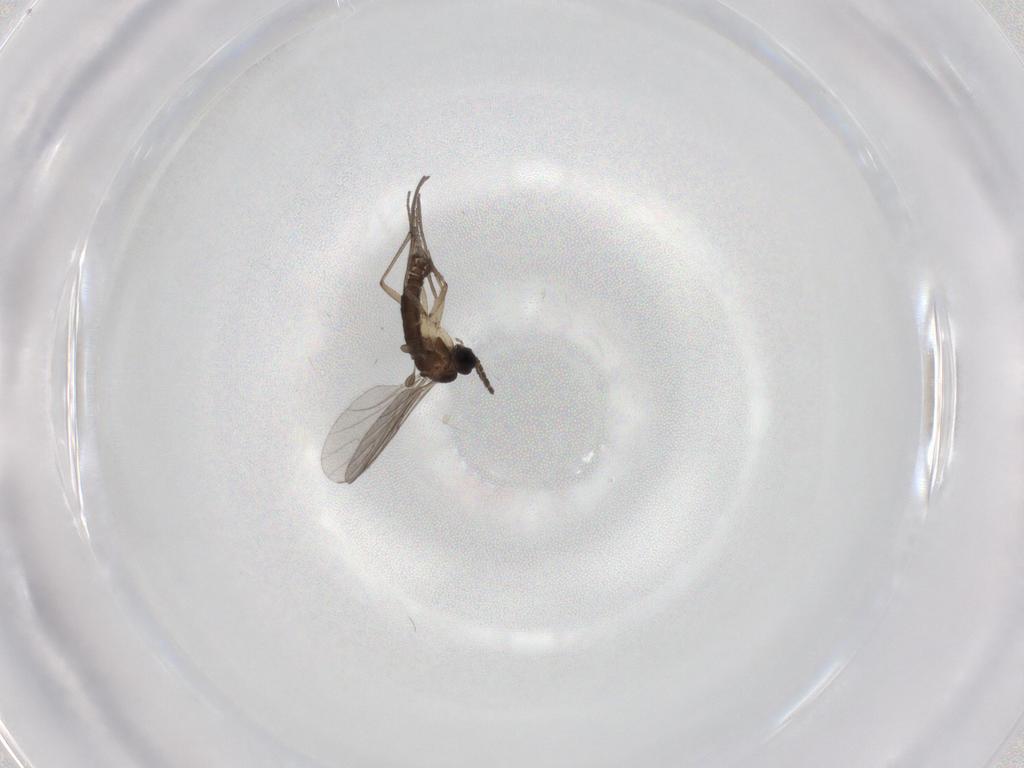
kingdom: Animalia
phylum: Arthropoda
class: Insecta
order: Diptera
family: Sciaridae
